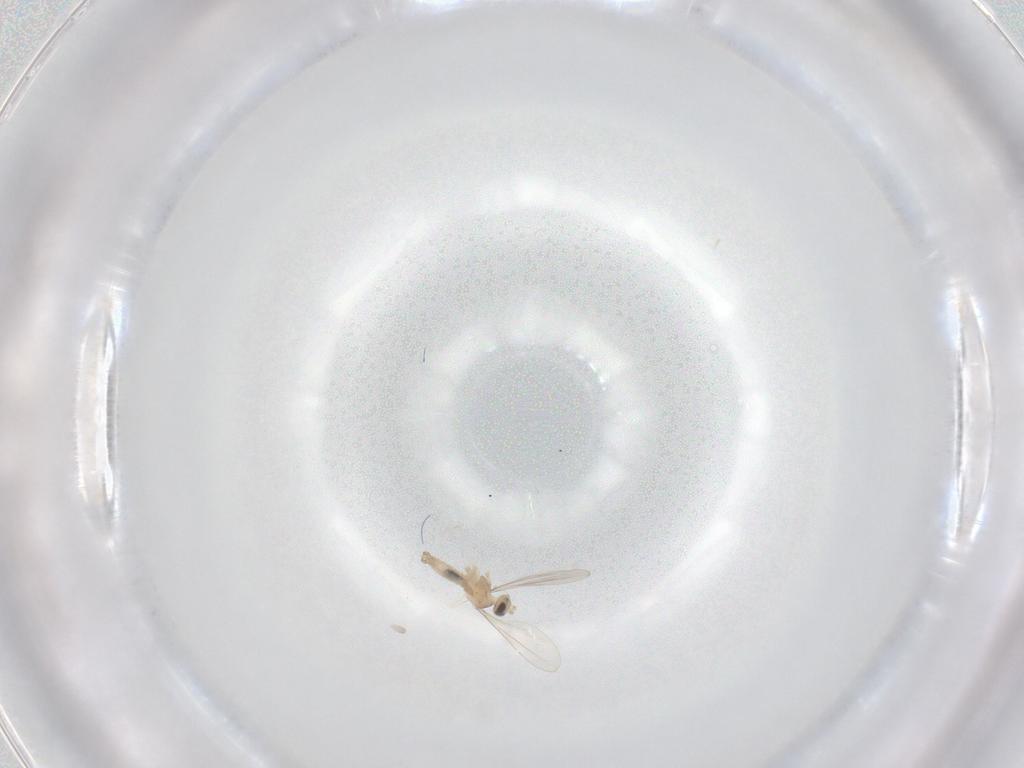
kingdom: Animalia
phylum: Arthropoda
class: Insecta
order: Diptera
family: Cecidomyiidae
